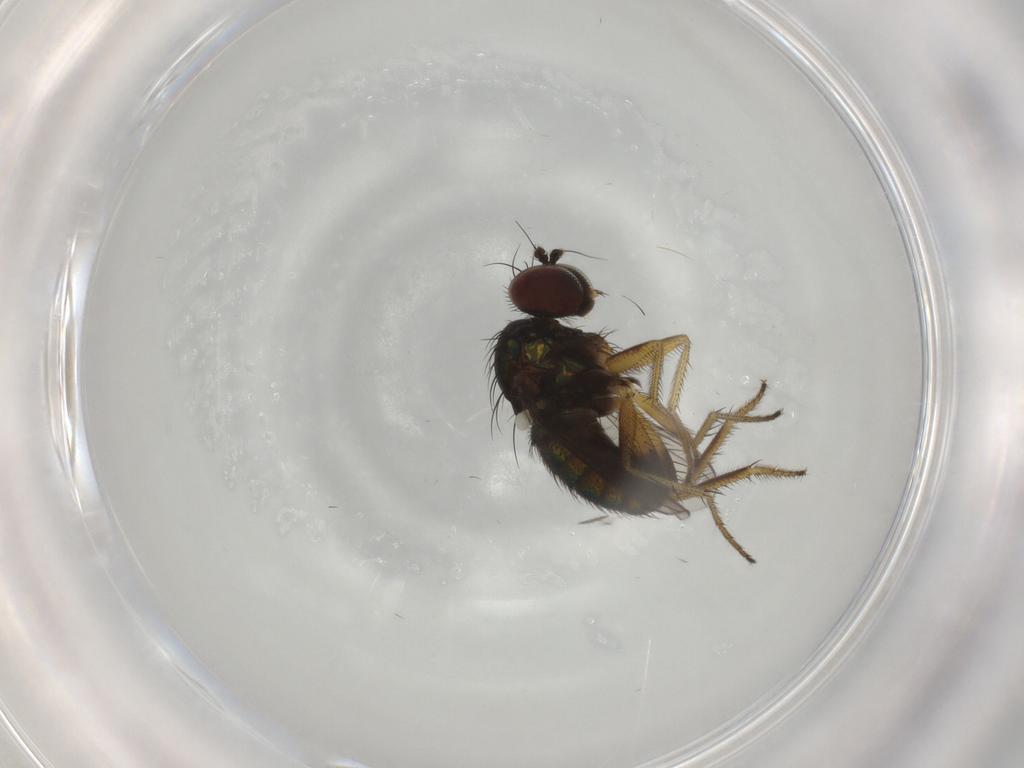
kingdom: Animalia
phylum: Arthropoda
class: Insecta
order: Diptera
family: Dolichopodidae
